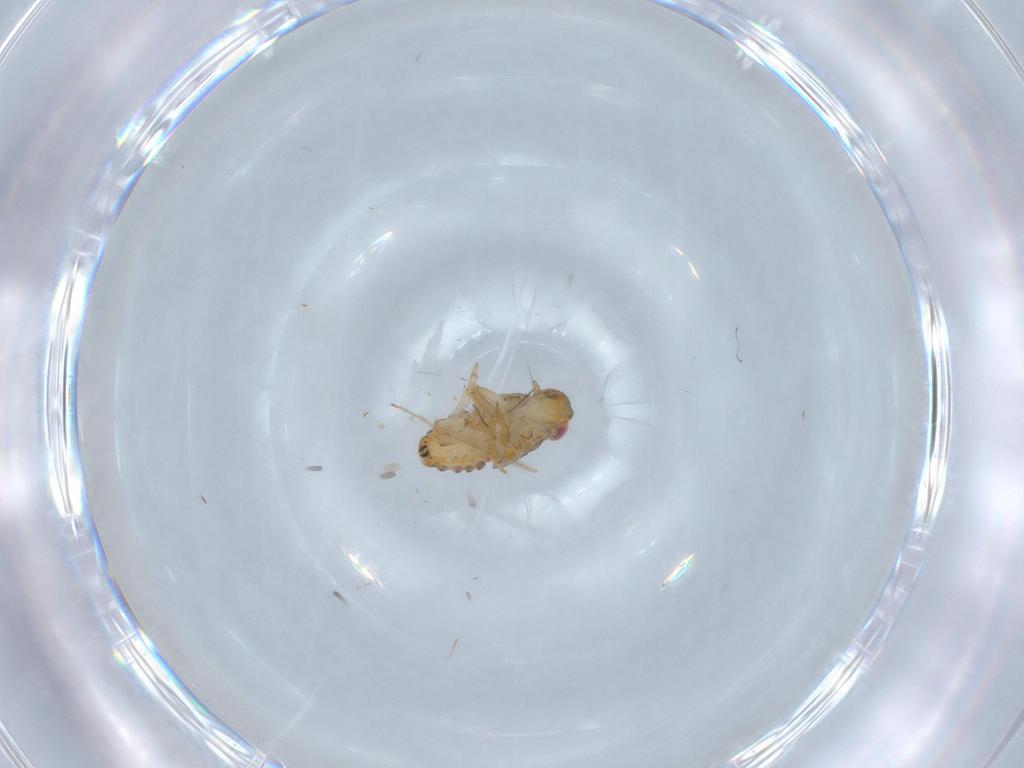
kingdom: Animalia
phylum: Arthropoda
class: Insecta
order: Hemiptera
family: Issidae
